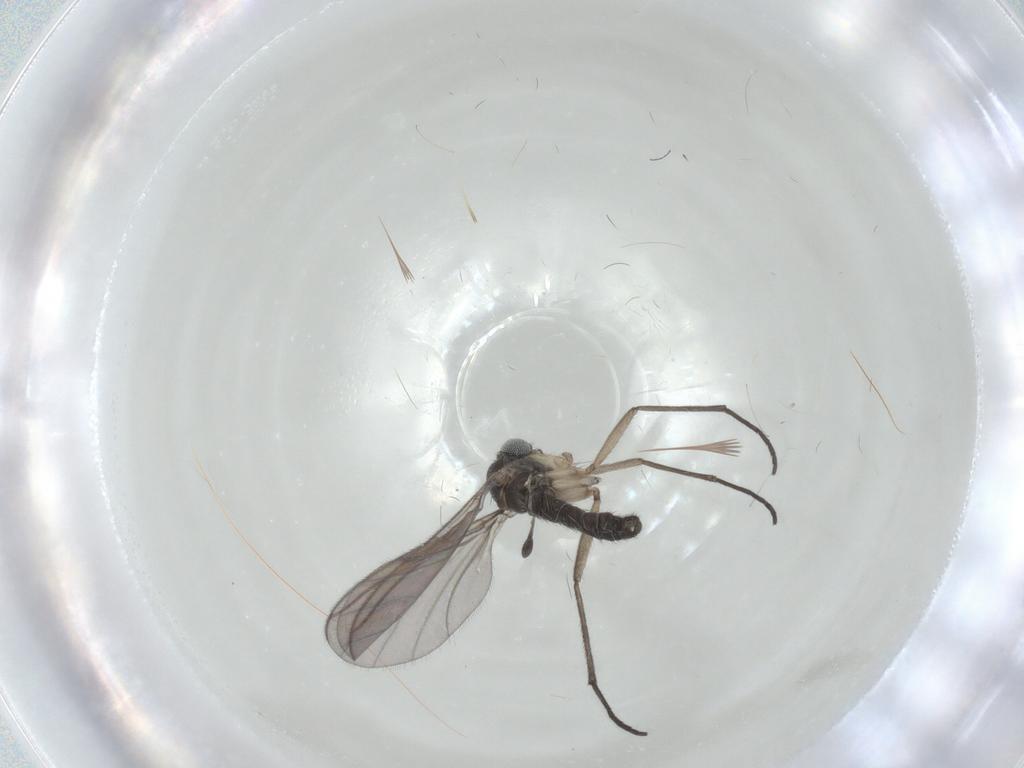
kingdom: Animalia
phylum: Arthropoda
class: Insecta
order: Diptera
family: Sciaridae
